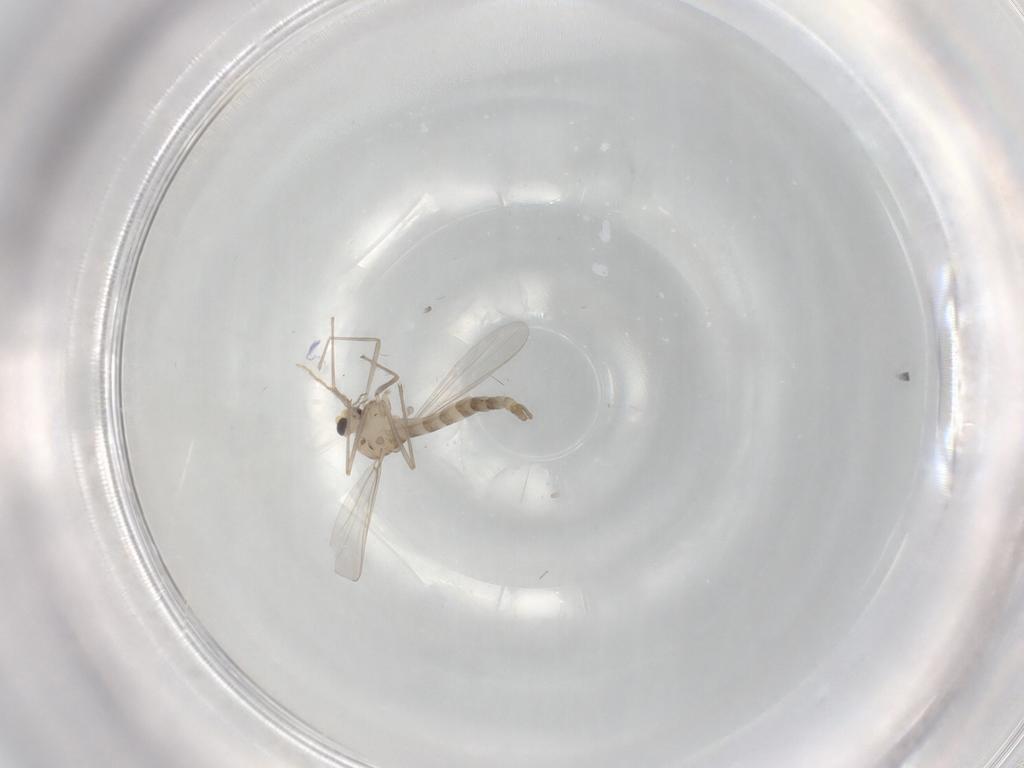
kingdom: Animalia
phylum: Arthropoda
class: Insecta
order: Diptera
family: Chironomidae
